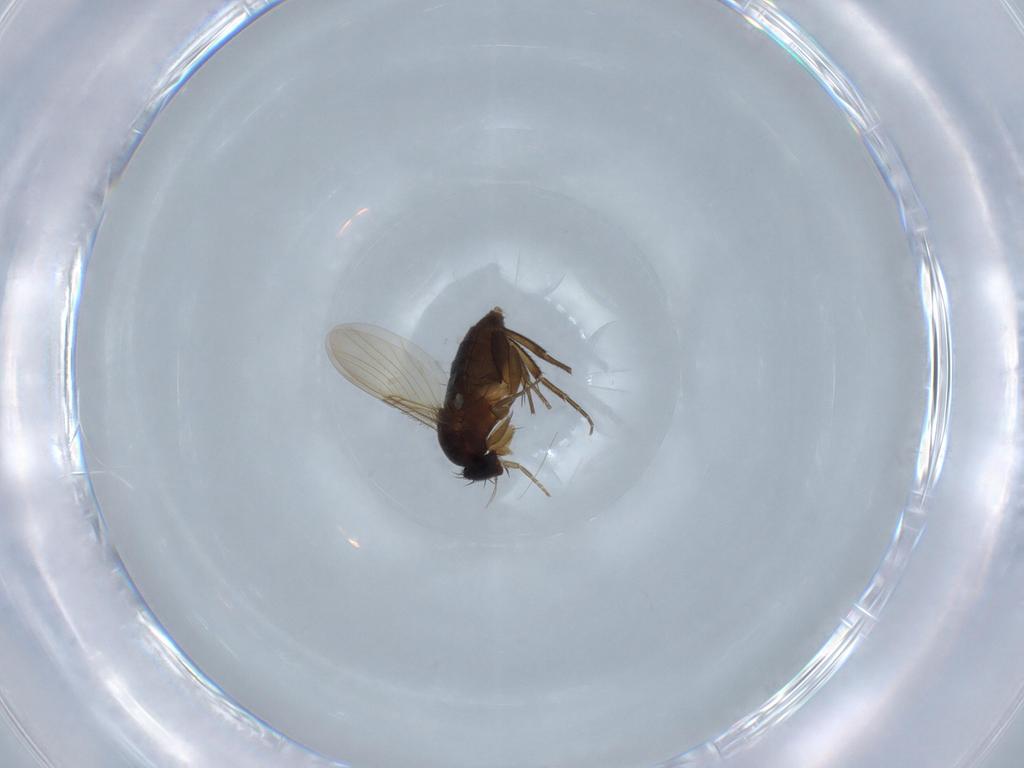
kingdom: Animalia
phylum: Arthropoda
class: Insecta
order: Diptera
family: Phoridae
